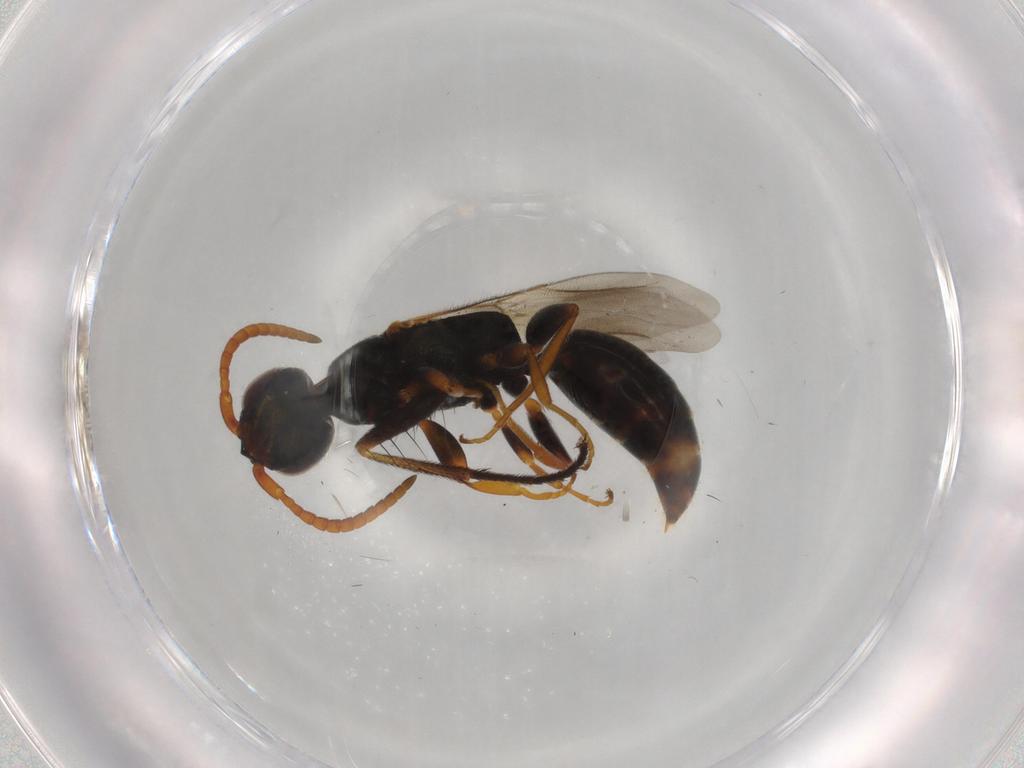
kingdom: Animalia
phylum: Arthropoda
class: Insecta
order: Hymenoptera
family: Bethylidae
